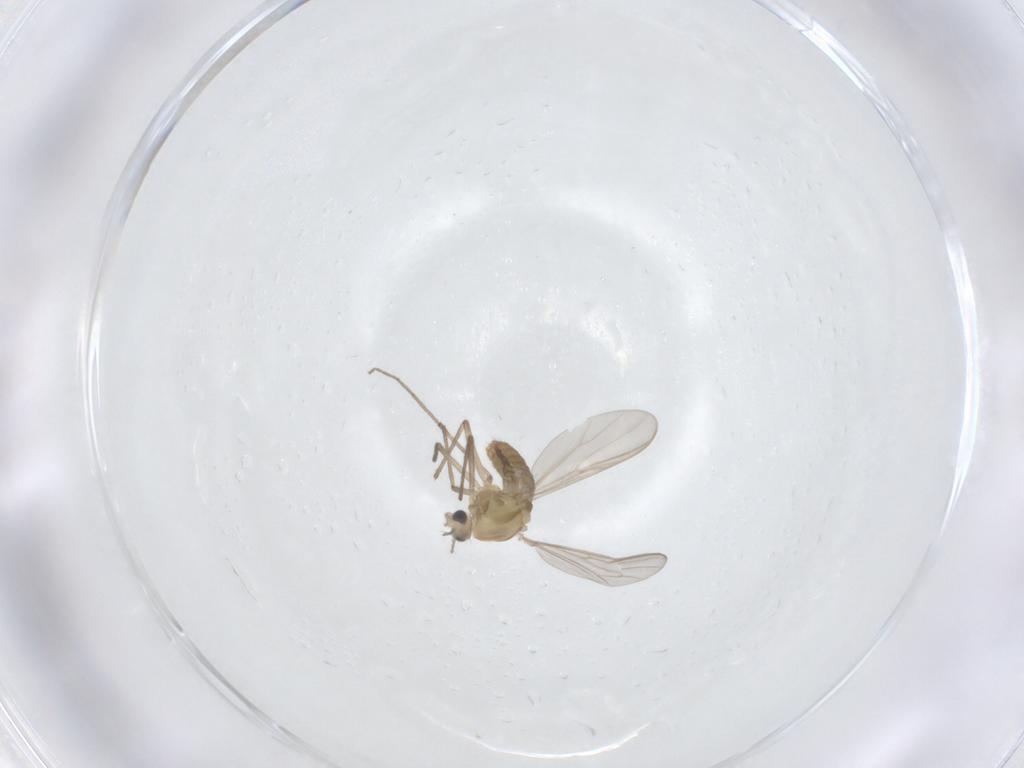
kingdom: Animalia
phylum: Arthropoda
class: Insecta
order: Diptera
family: Chironomidae
